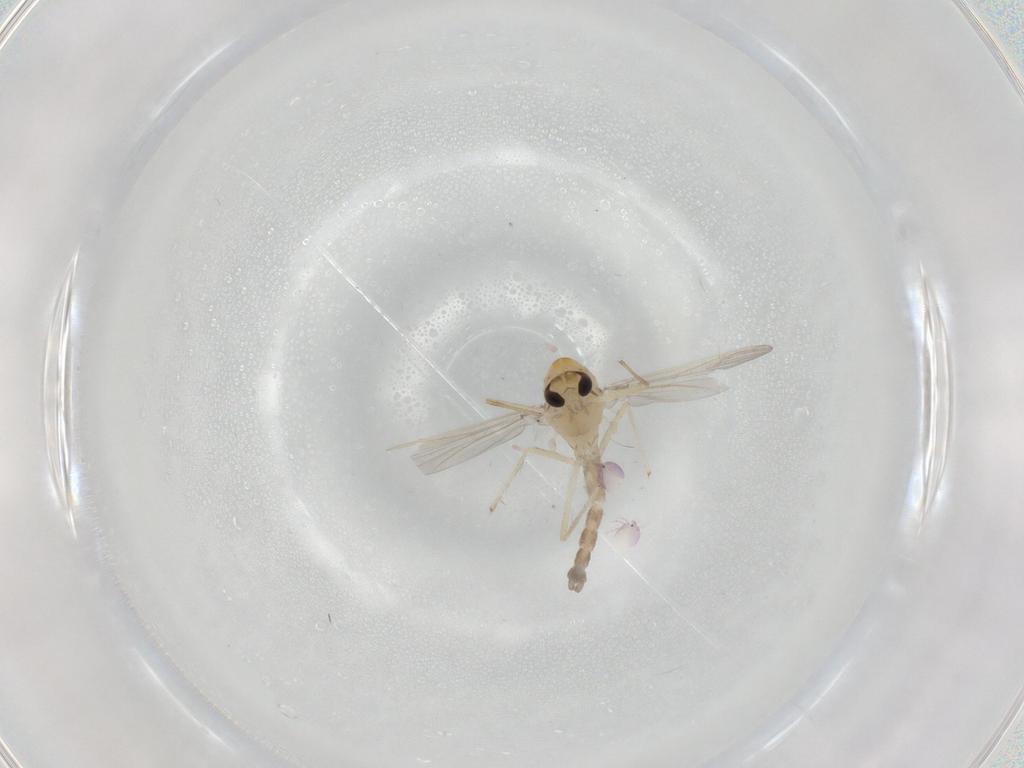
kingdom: Animalia
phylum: Arthropoda
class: Insecta
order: Diptera
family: Chironomidae
